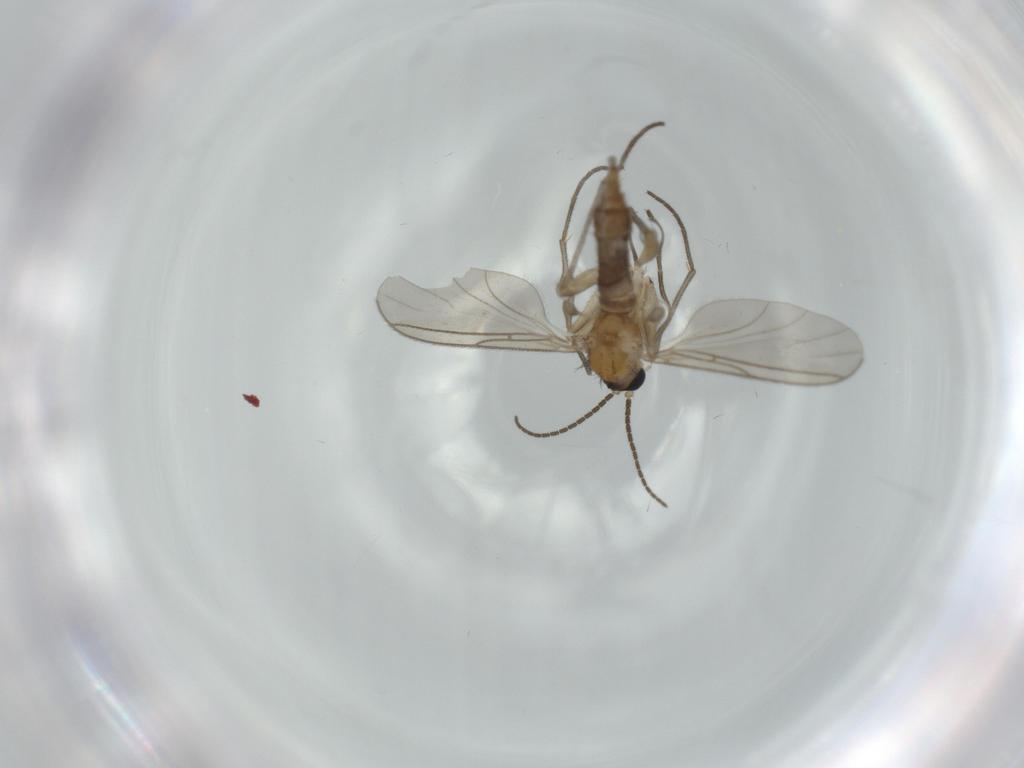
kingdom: Animalia
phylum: Arthropoda
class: Insecta
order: Diptera
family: Sciaridae
